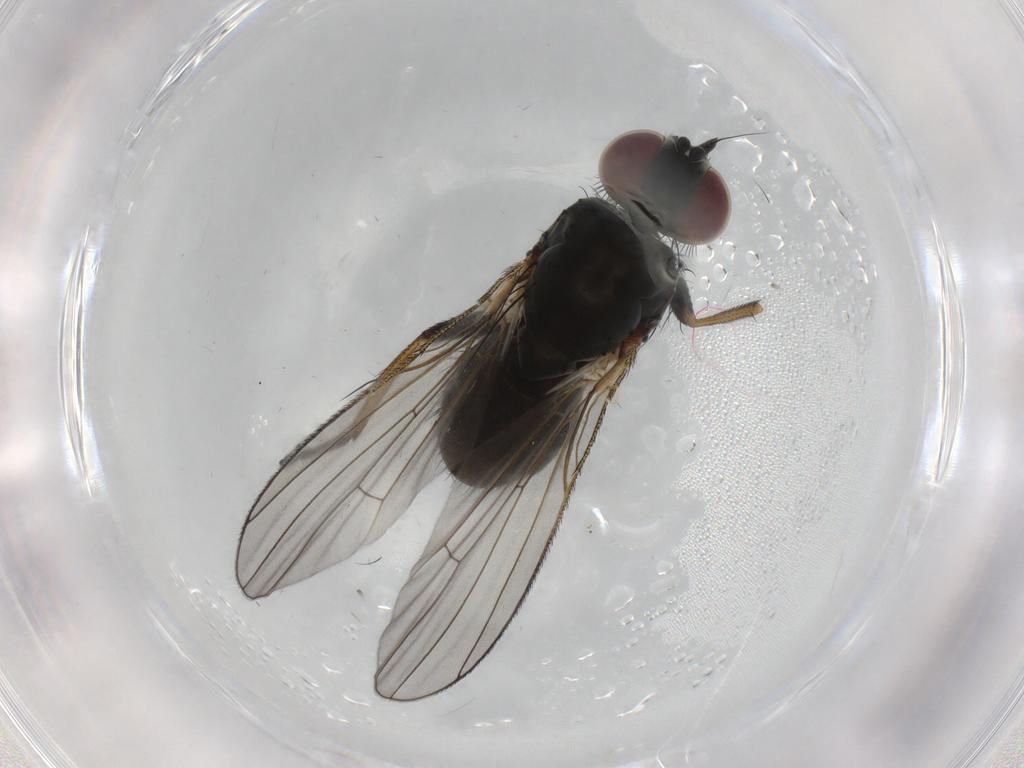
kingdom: Animalia
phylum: Arthropoda
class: Insecta
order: Diptera
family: Muscidae
